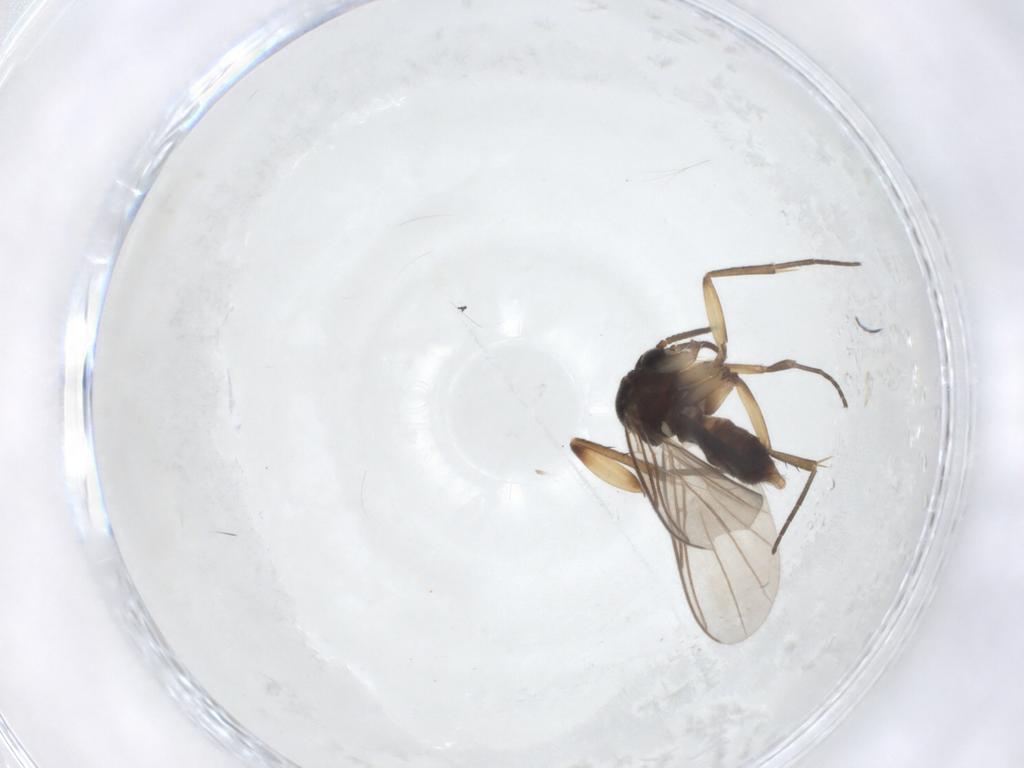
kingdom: Animalia
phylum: Arthropoda
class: Insecta
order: Diptera
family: Mycetophilidae
